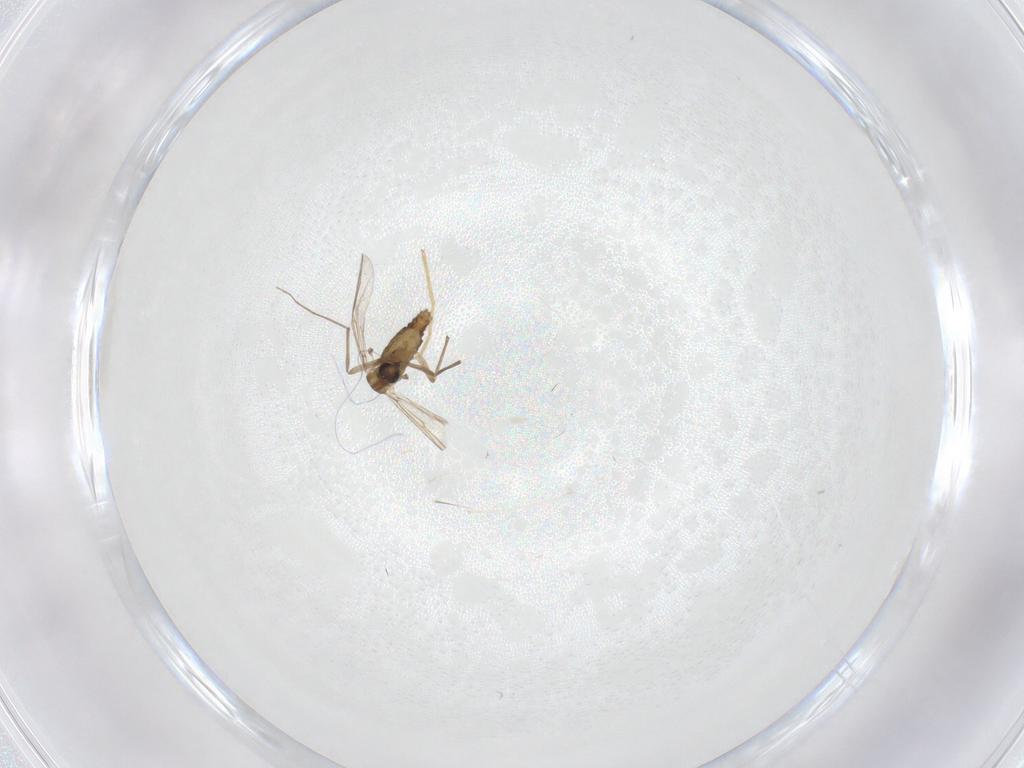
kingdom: Animalia
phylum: Arthropoda
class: Insecta
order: Diptera
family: Chironomidae
